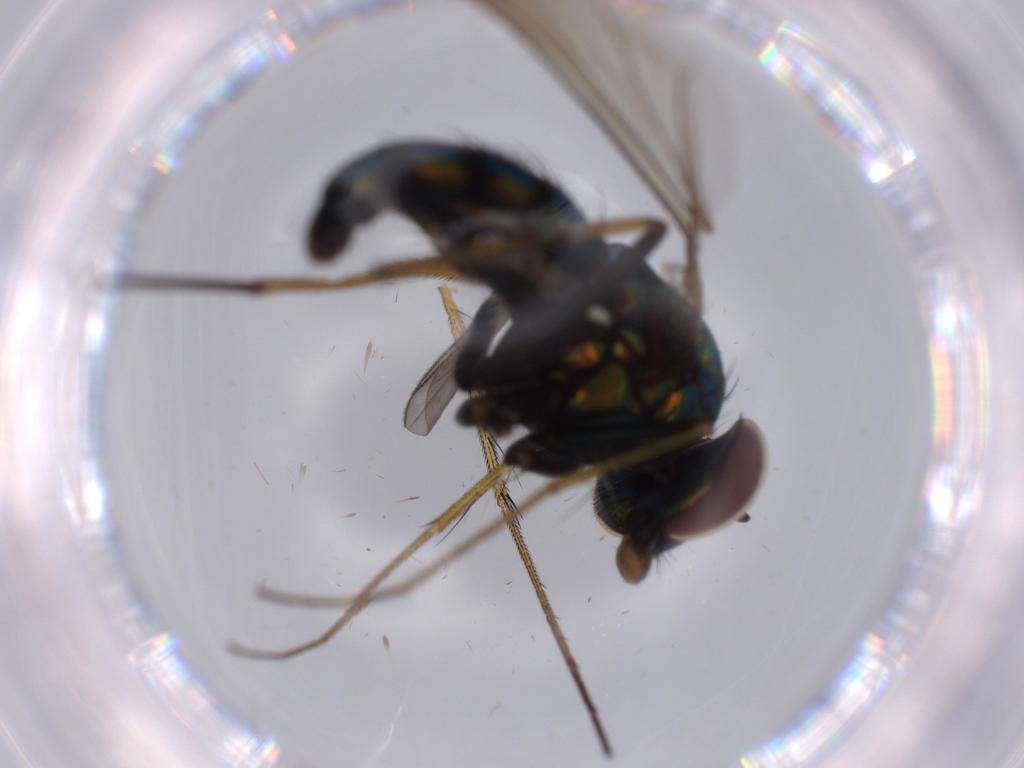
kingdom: Animalia
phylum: Arthropoda
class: Insecta
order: Diptera
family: Dolichopodidae
